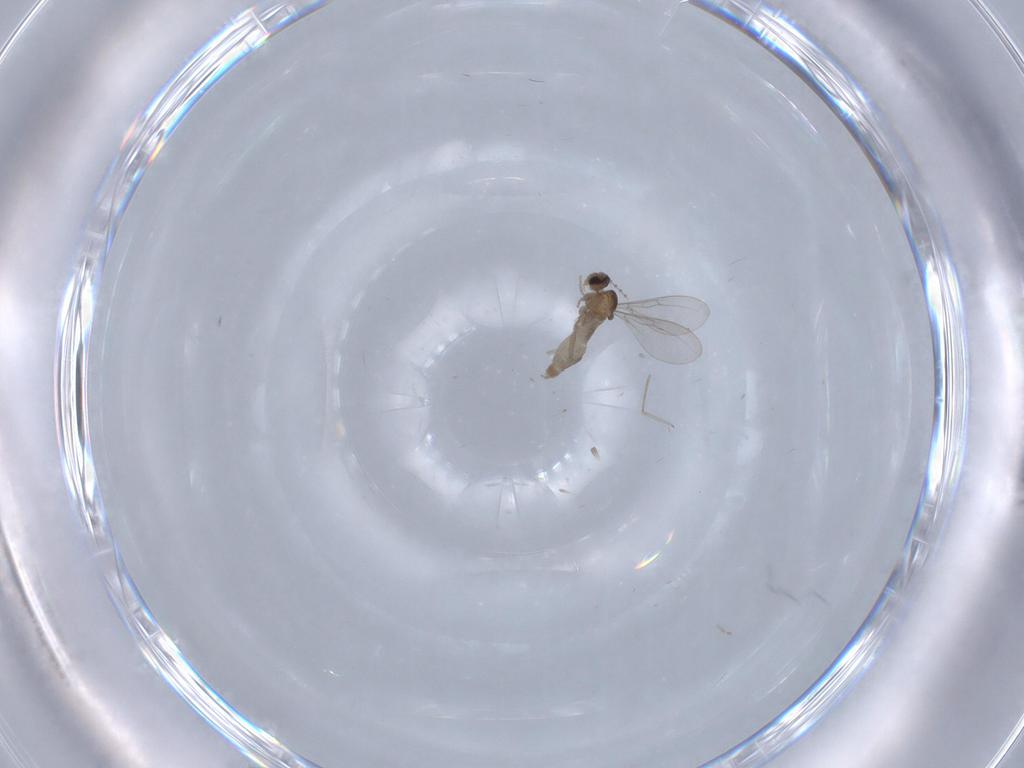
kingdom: Animalia
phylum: Arthropoda
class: Insecta
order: Diptera
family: Cecidomyiidae
